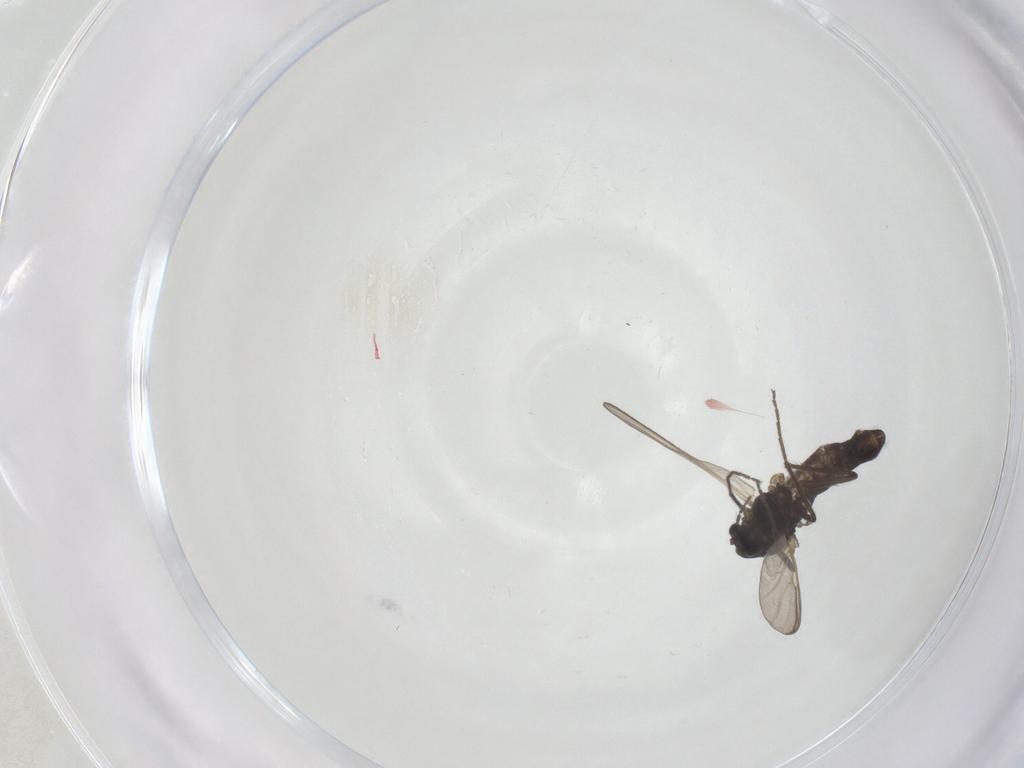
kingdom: Animalia
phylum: Arthropoda
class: Insecta
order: Diptera
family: Chironomidae
